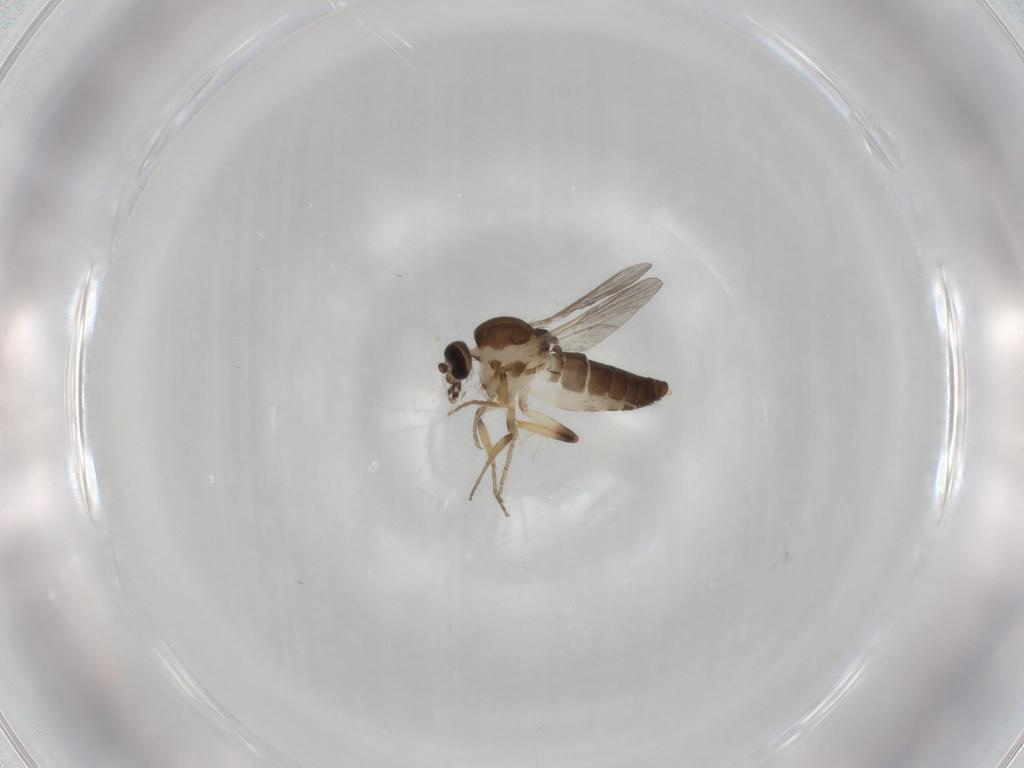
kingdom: Animalia
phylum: Arthropoda
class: Insecta
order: Diptera
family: Ceratopogonidae
